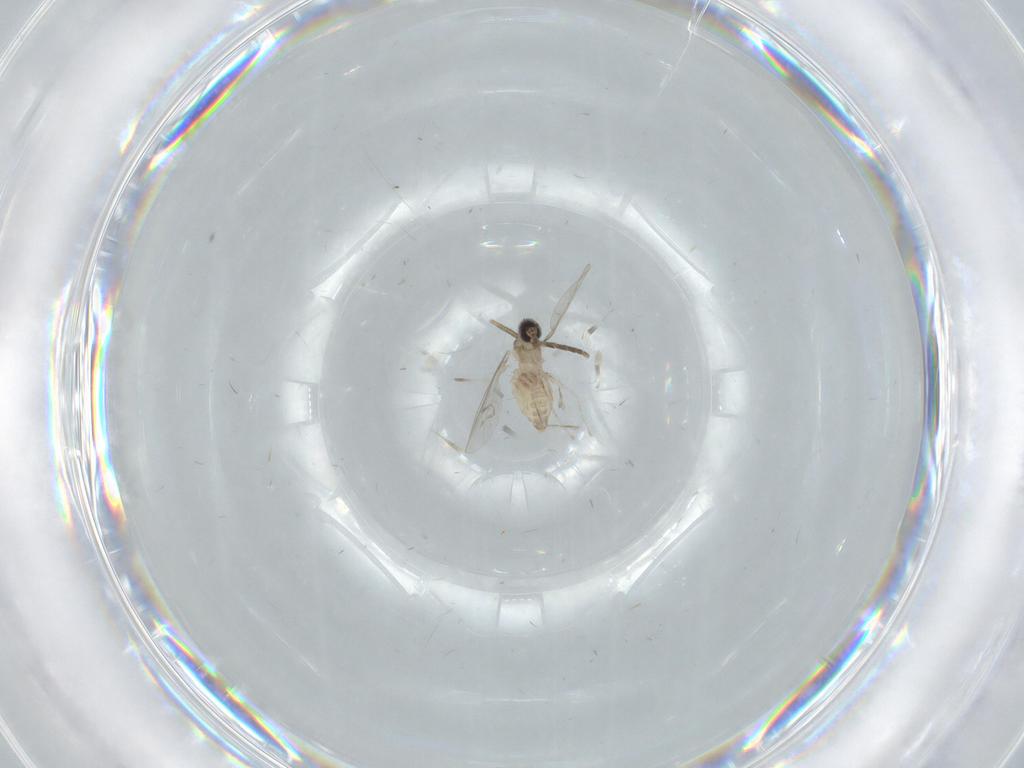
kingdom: Animalia
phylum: Arthropoda
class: Insecta
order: Diptera
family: Cecidomyiidae
